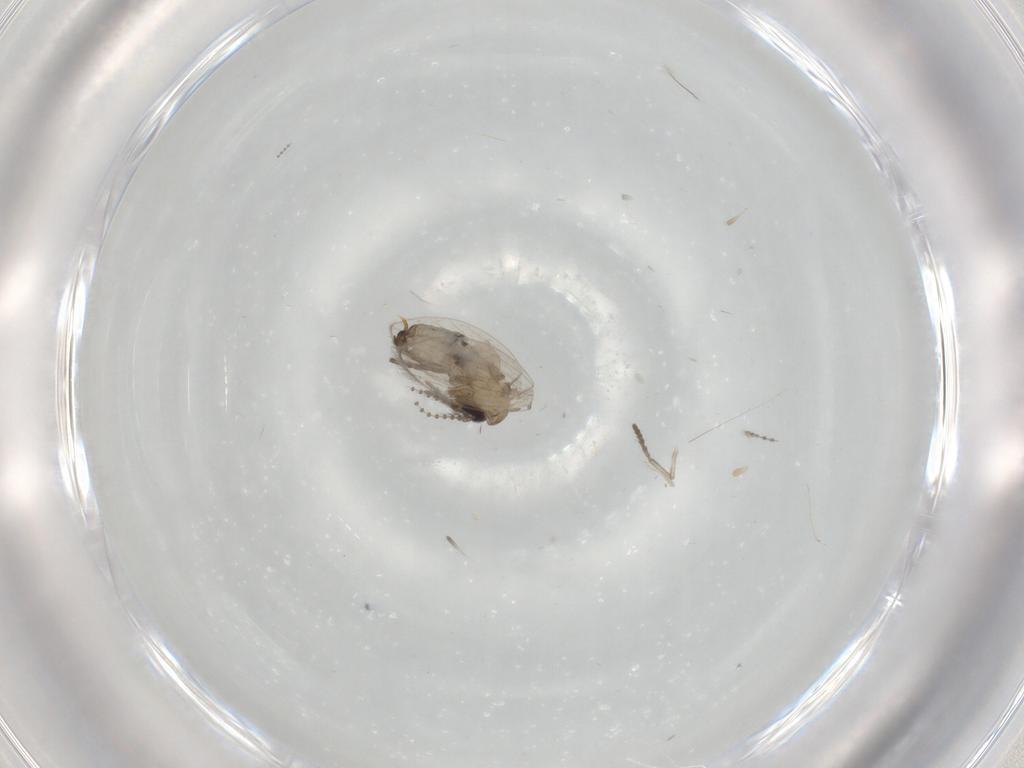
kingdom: Animalia
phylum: Arthropoda
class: Insecta
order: Diptera
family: Psychodidae
